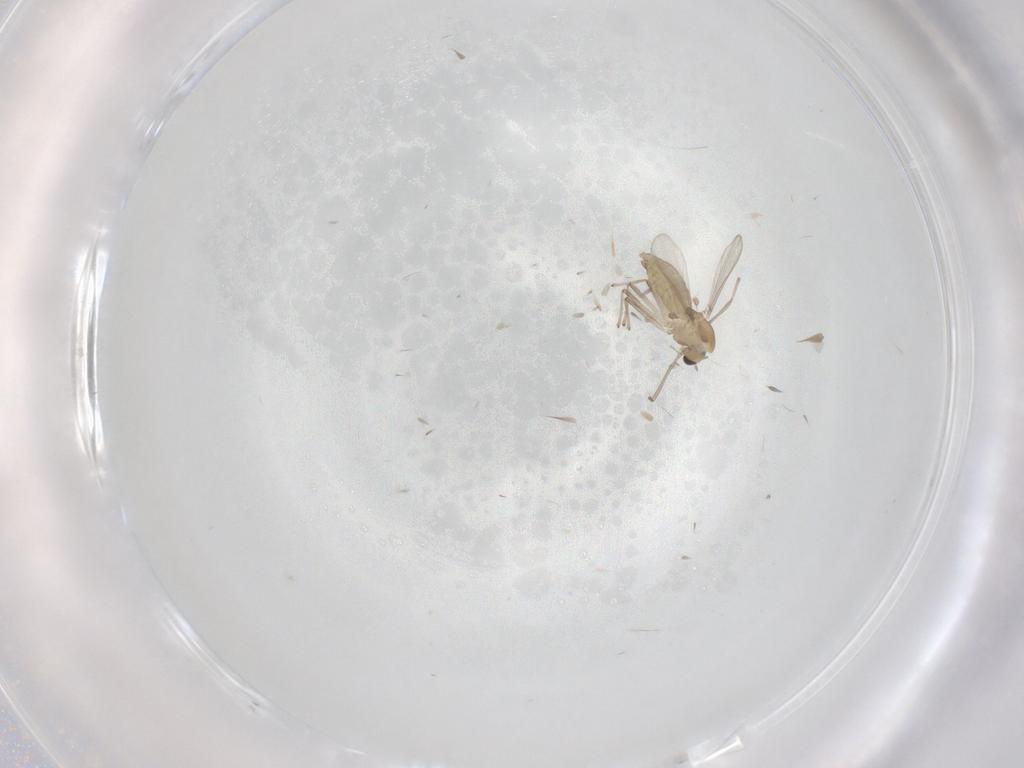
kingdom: Animalia
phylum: Arthropoda
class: Insecta
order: Diptera
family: Chironomidae
